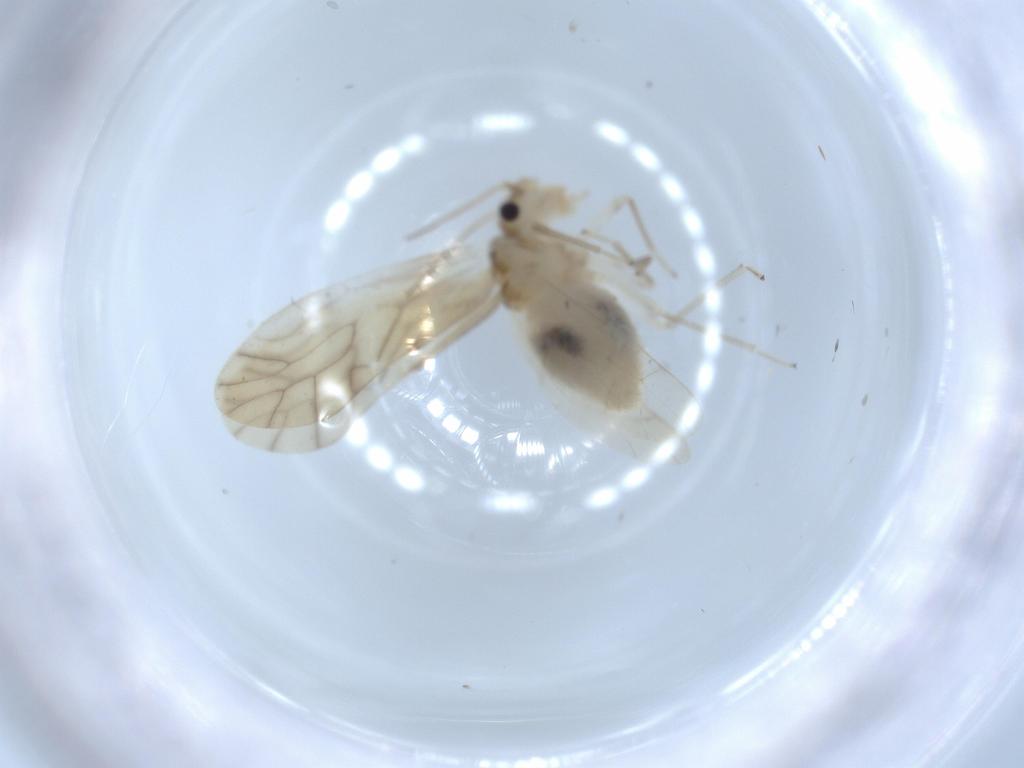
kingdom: Animalia
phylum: Arthropoda
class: Insecta
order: Psocodea
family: Caeciliusidae
